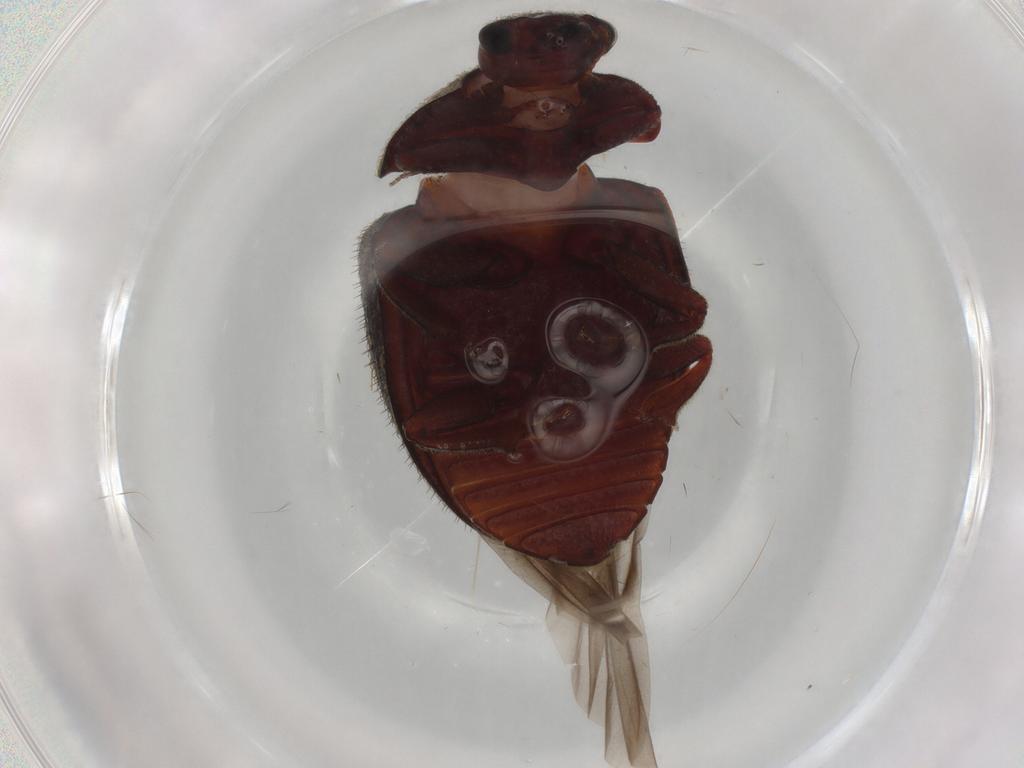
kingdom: Animalia
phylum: Arthropoda
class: Insecta
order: Coleoptera
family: Nitidulidae
